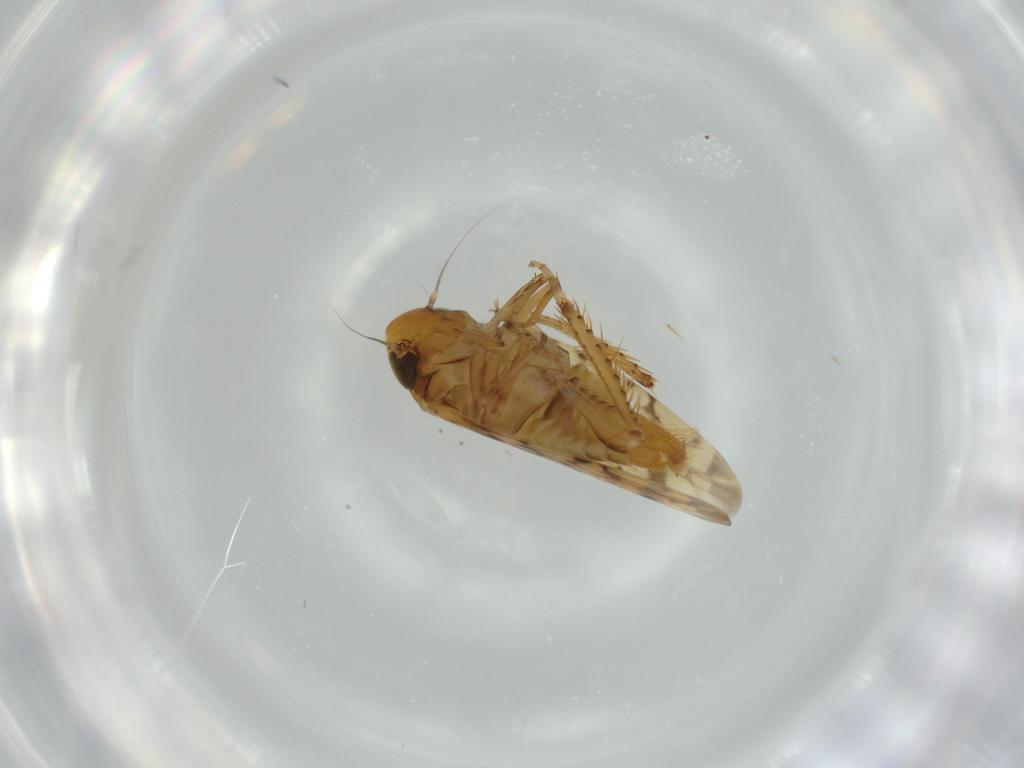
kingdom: Animalia
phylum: Arthropoda
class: Insecta
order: Hemiptera
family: Cicadellidae
